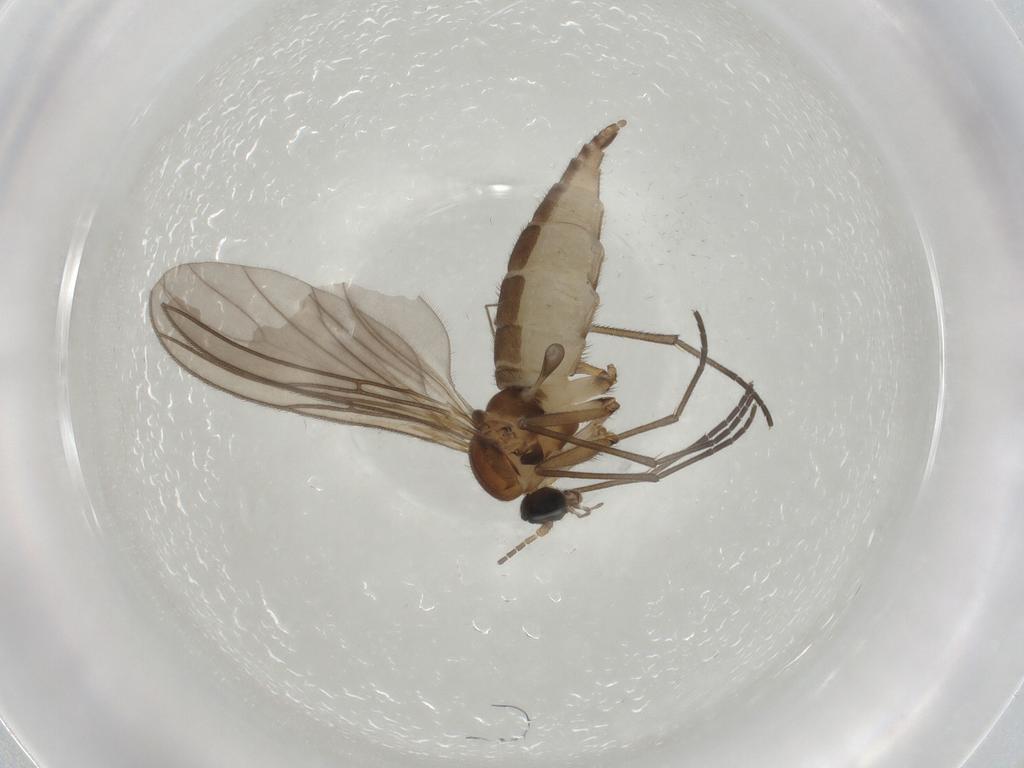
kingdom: Animalia
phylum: Arthropoda
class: Insecta
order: Diptera
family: Sciaridae
